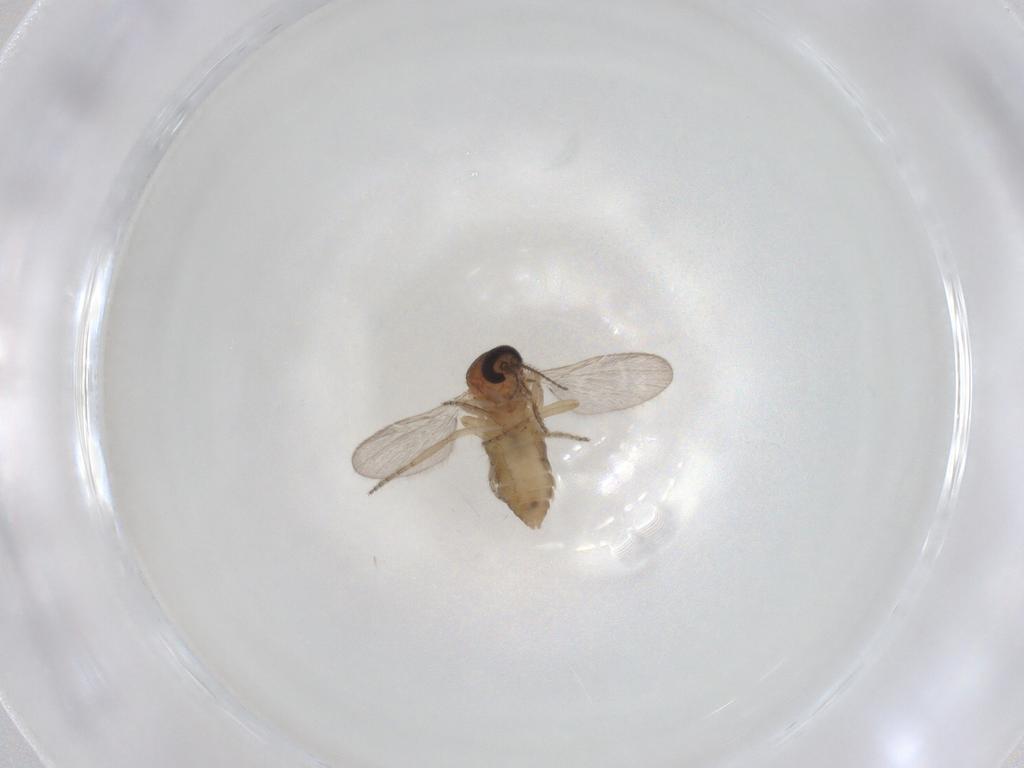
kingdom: Animalia
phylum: Arthropoda
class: Insecta
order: Diptera
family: Ceratopogonidae
